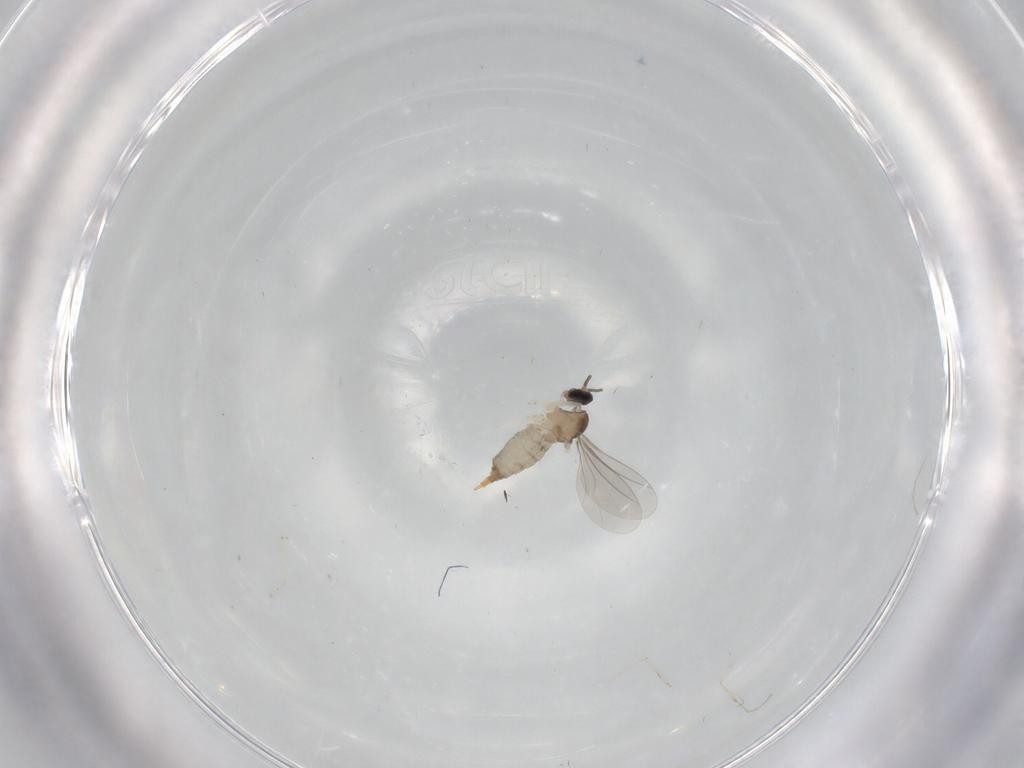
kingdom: Animalia
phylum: Arthropoda
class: Insecta
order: Diptera
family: Cecidomyiidae
